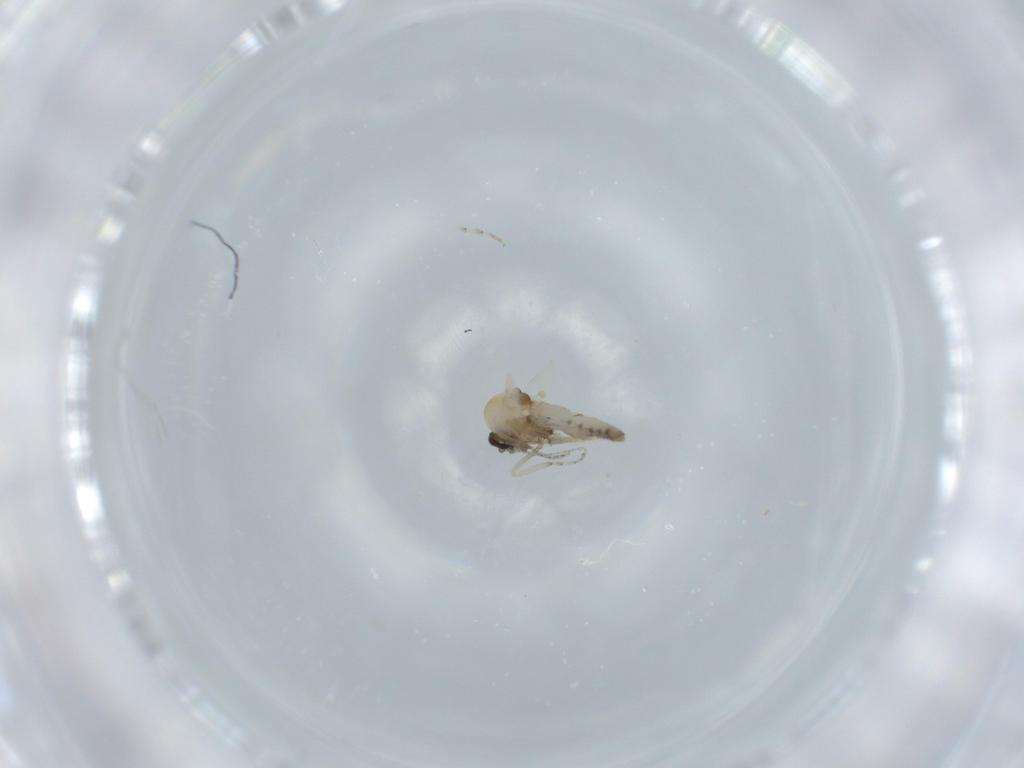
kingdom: Animalia
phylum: Arthropoda
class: Insecta
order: Diptera
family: Ceratopogonidae
